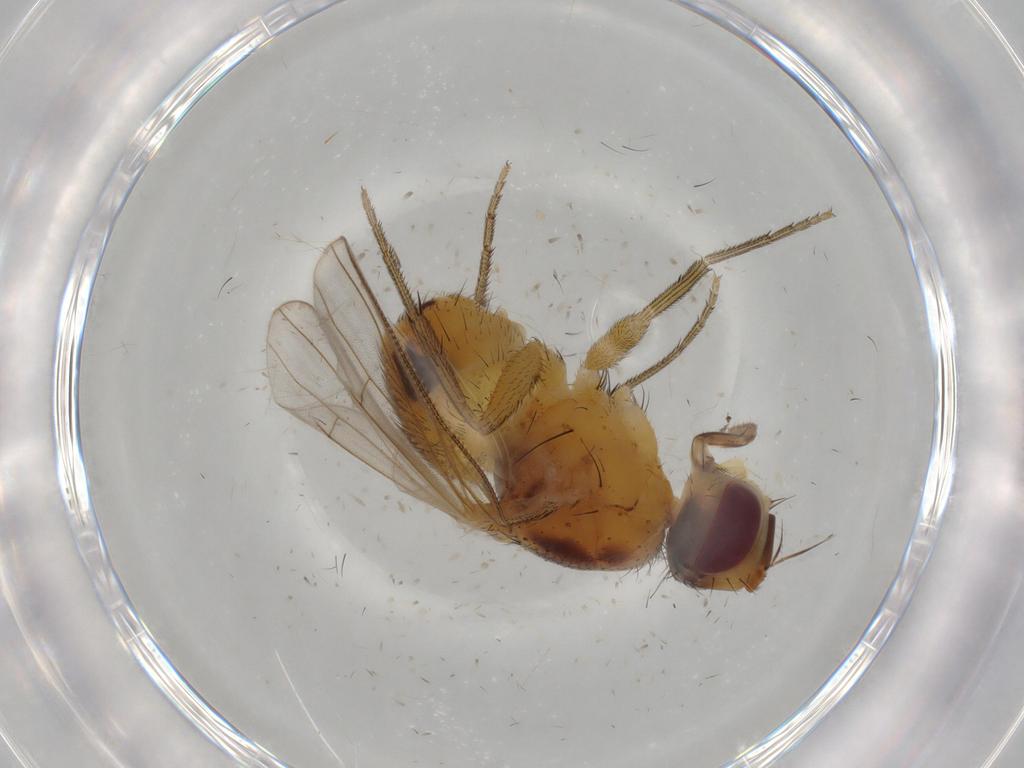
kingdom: Animalia
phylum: Arthropoda
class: Insecta
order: Diptera
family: Muscidae
